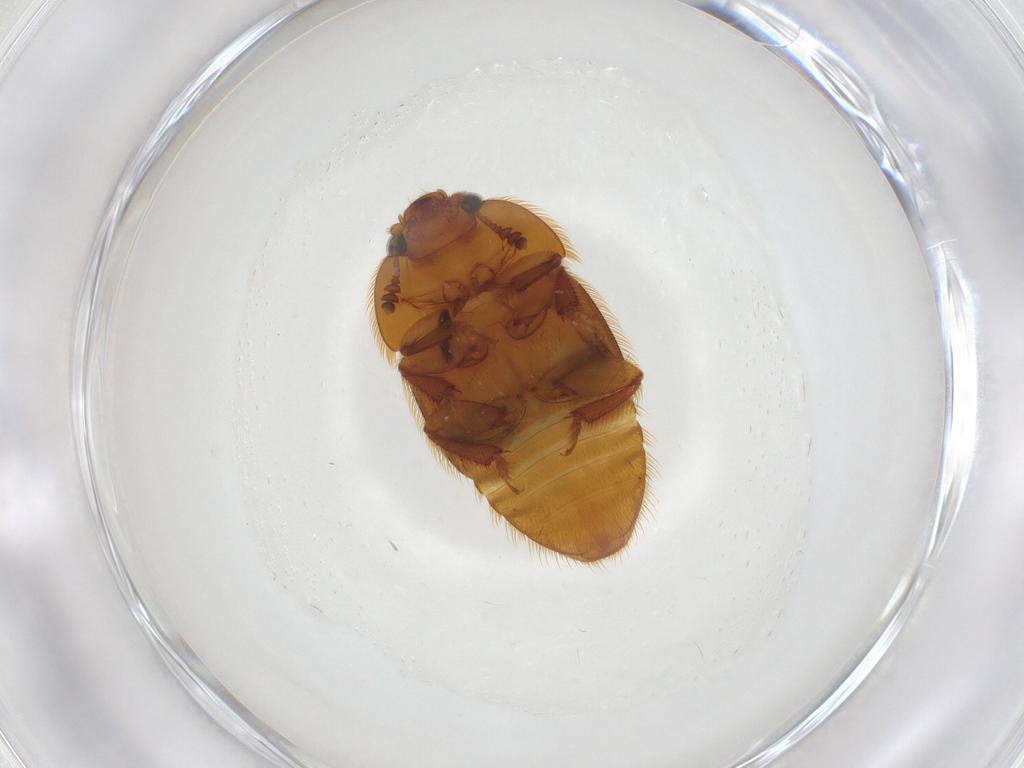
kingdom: Animalia
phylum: Arthropoda
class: Insecta
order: Coleoptera
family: Nitidulidae
